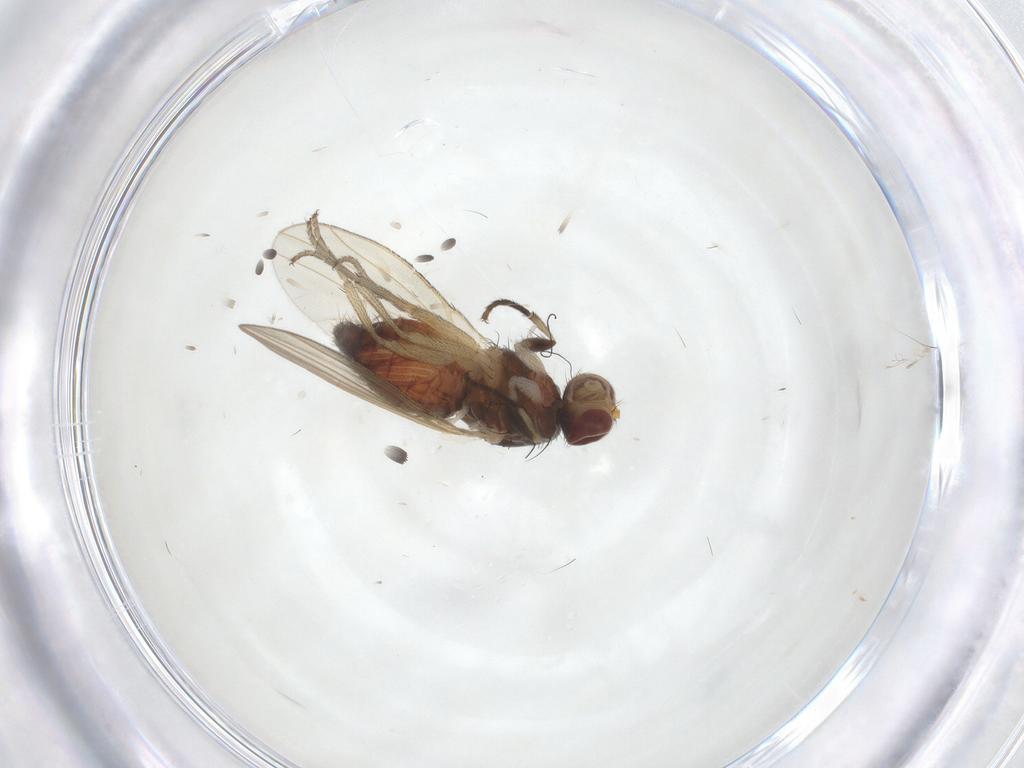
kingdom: Animalia
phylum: Arthropoda
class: Insecta
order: Diptera
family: Heleomyzidae
